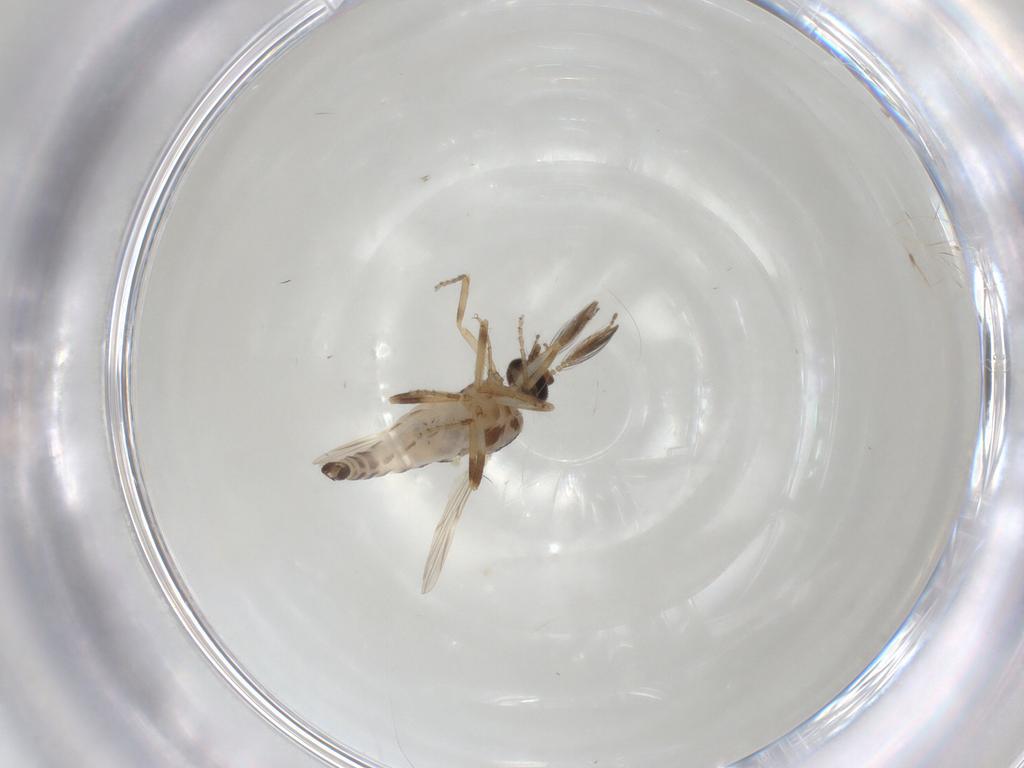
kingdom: Animalia
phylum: Arthropoda
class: Insecta
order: Diptera
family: Ceratopogonidae
